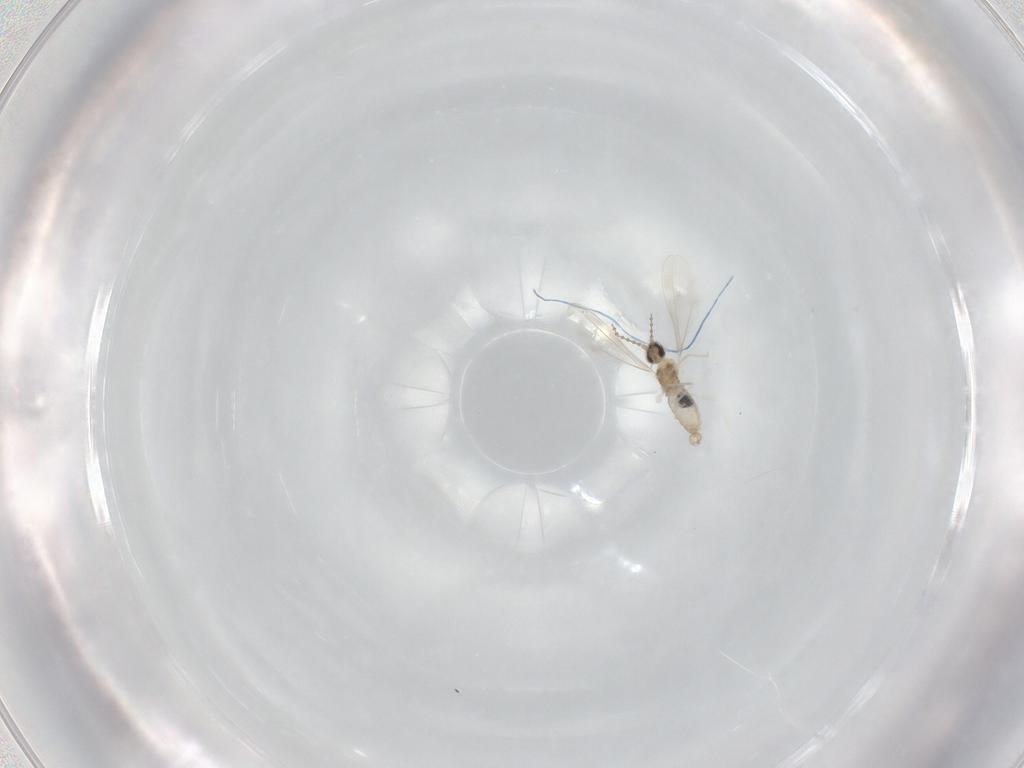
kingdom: Animalia
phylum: Arthropoda
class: Insecta
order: Diptera
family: Cecidomyiidae
